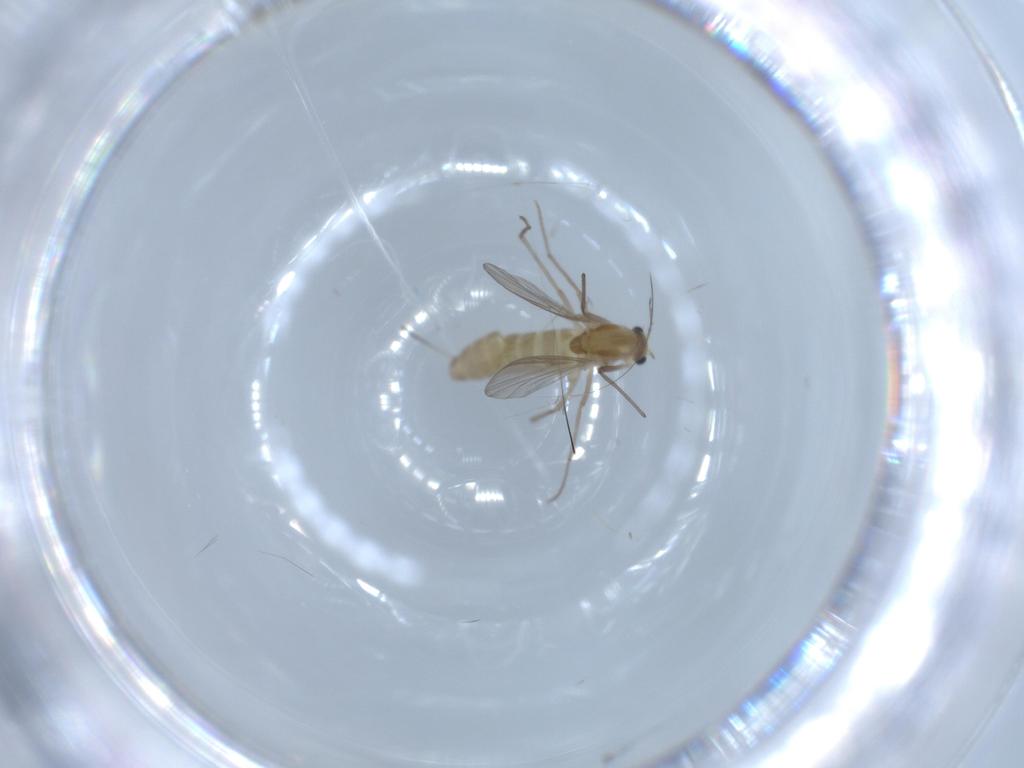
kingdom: Animalia
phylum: Arthropoda
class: Insecta
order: Diptera
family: Chironomidae
